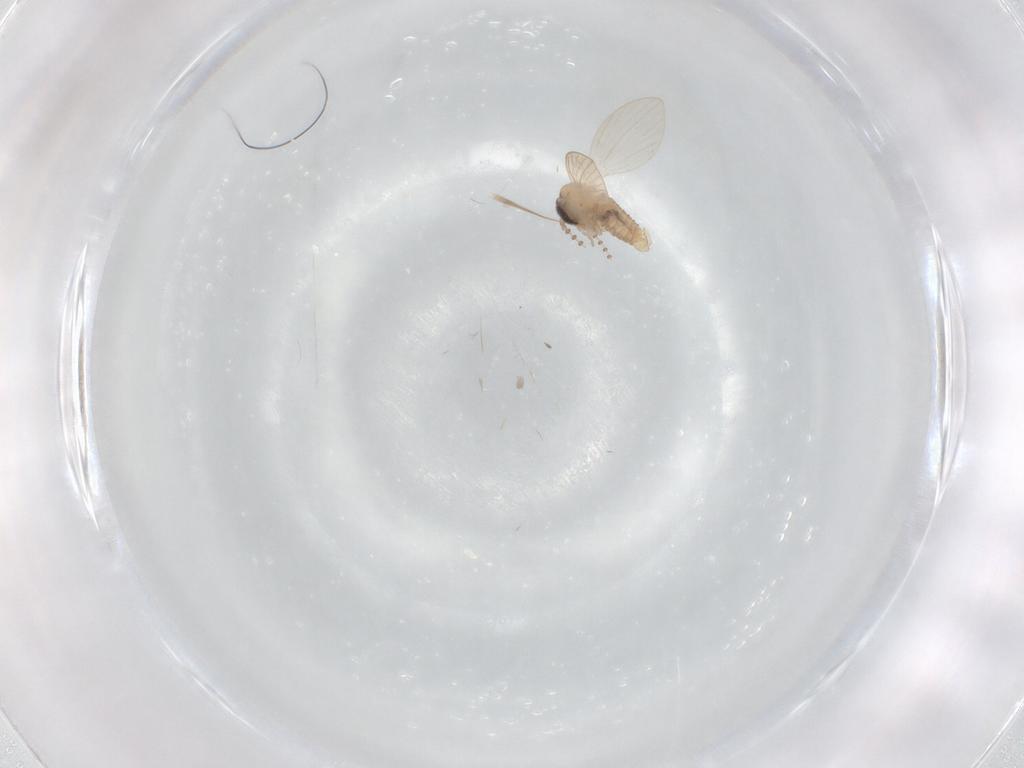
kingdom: Animalia
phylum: Arthropoda
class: Insecta
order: Diptera
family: Psychodidae
